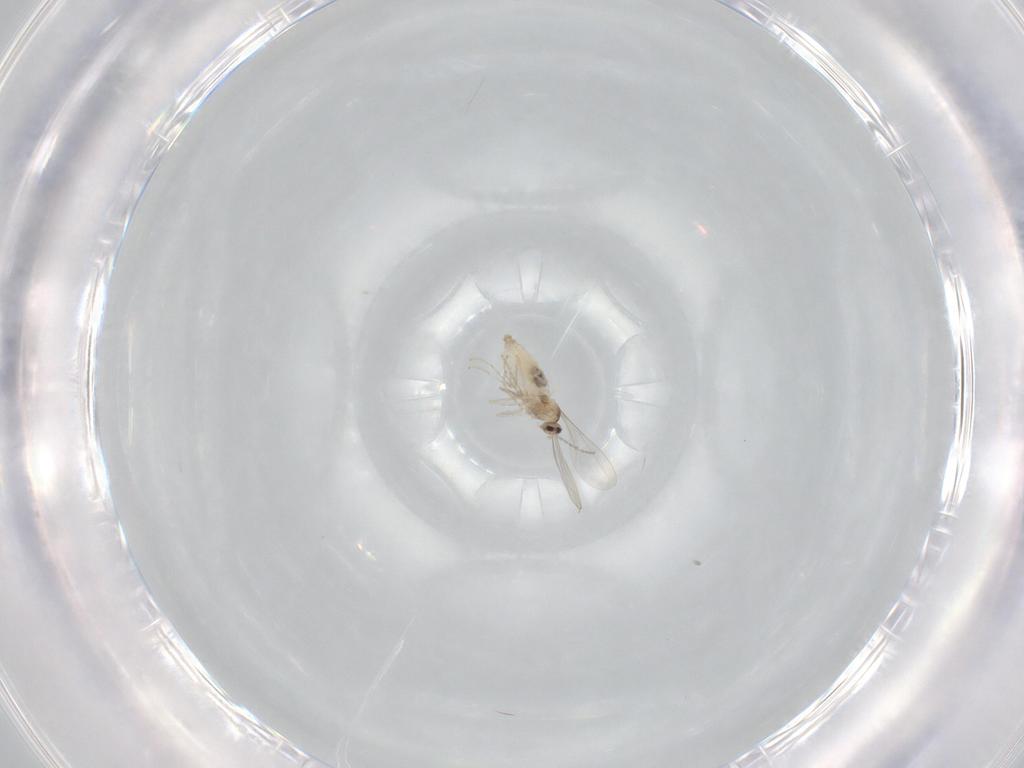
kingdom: Animalia
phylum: Arthropoda
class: Insecta
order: Diptera
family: Cecidomyiidae
